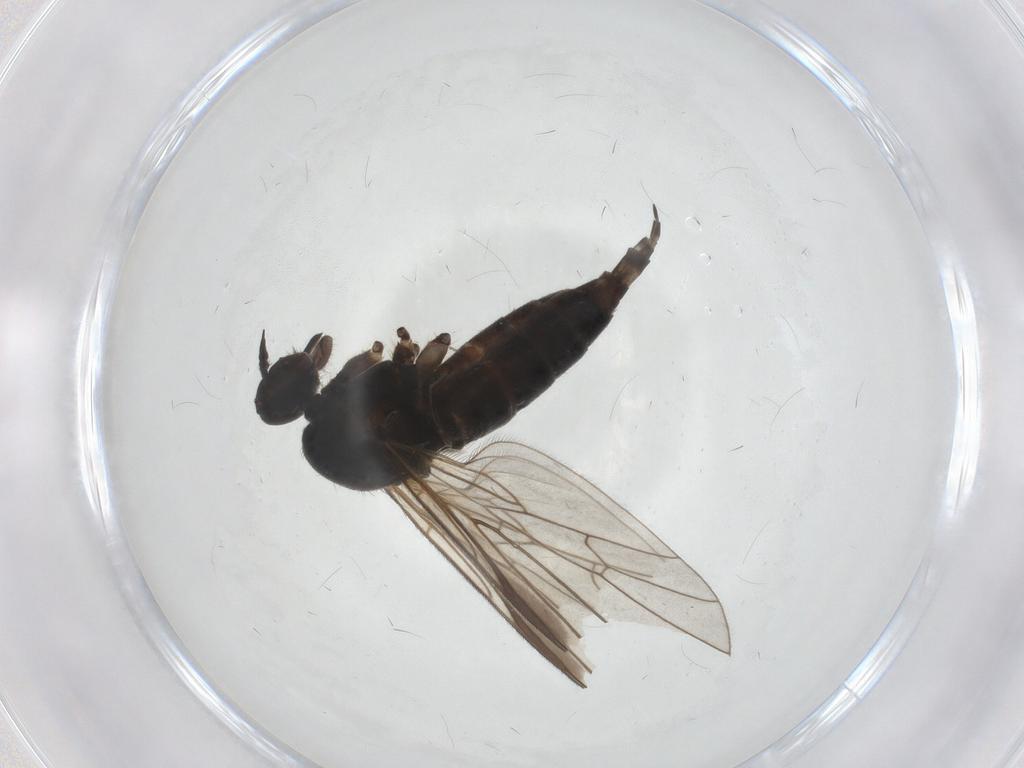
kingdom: Animalia
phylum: Arthropoda
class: Insecta
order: Diptera
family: Empididae
